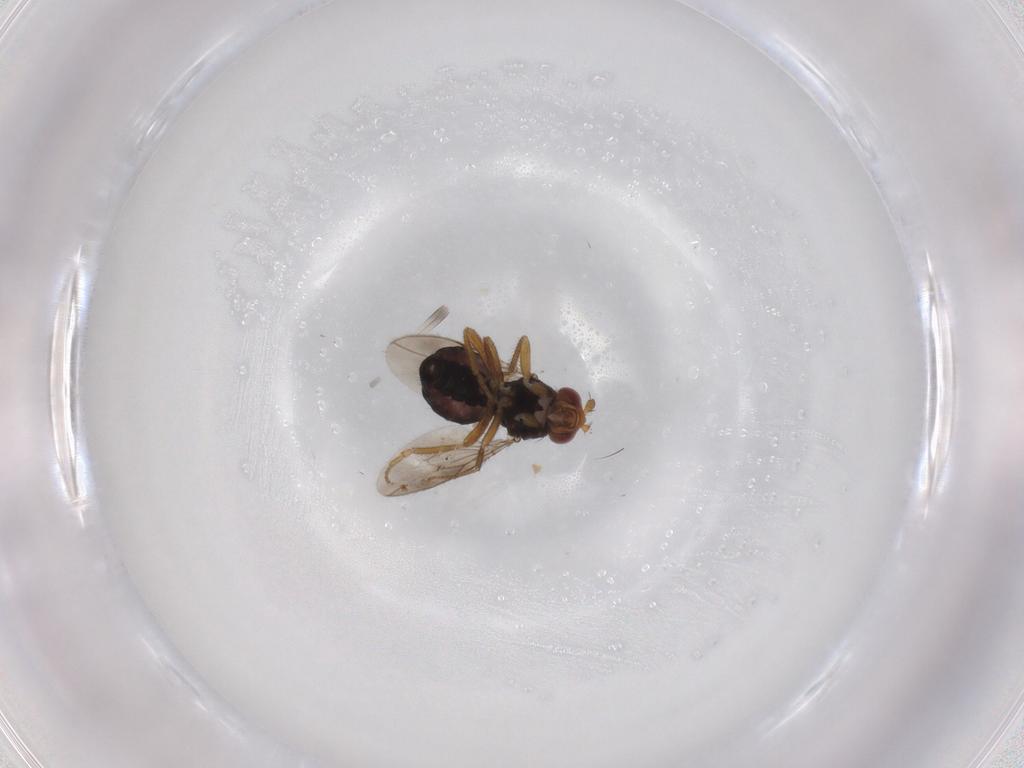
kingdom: Animalia
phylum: Arthropoda
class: Insecta
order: Diptera
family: Sphaeroceridae
